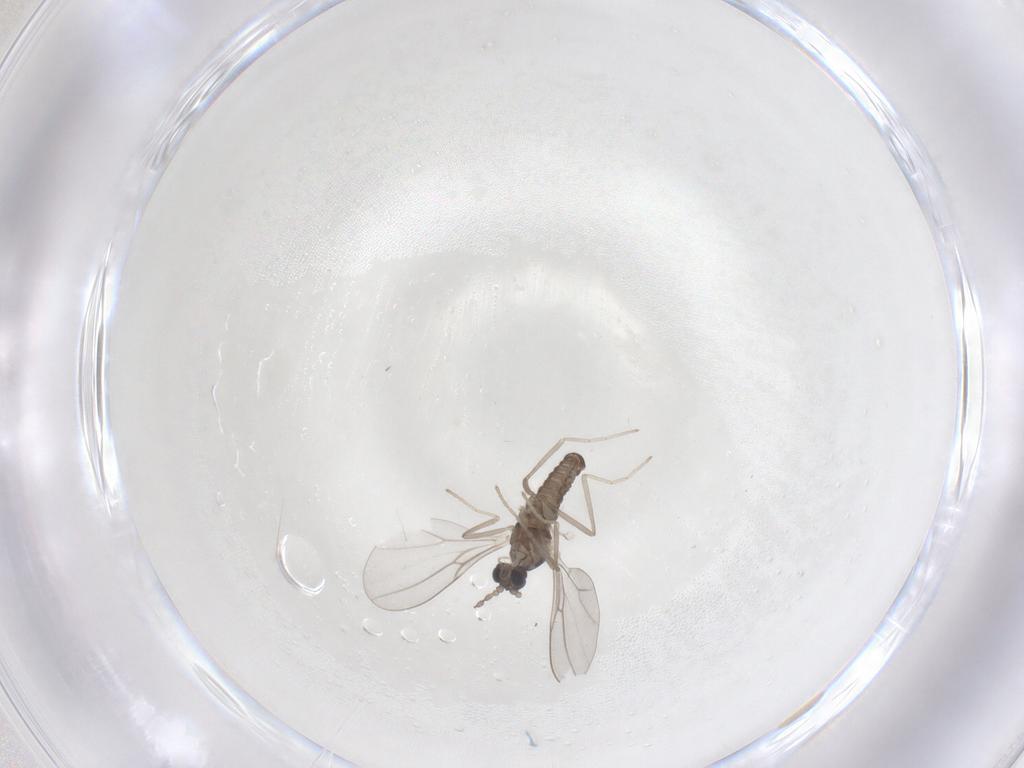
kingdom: Animalia
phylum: Arthropoda
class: Insecta
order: Diptera
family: Cecidomyiidae
